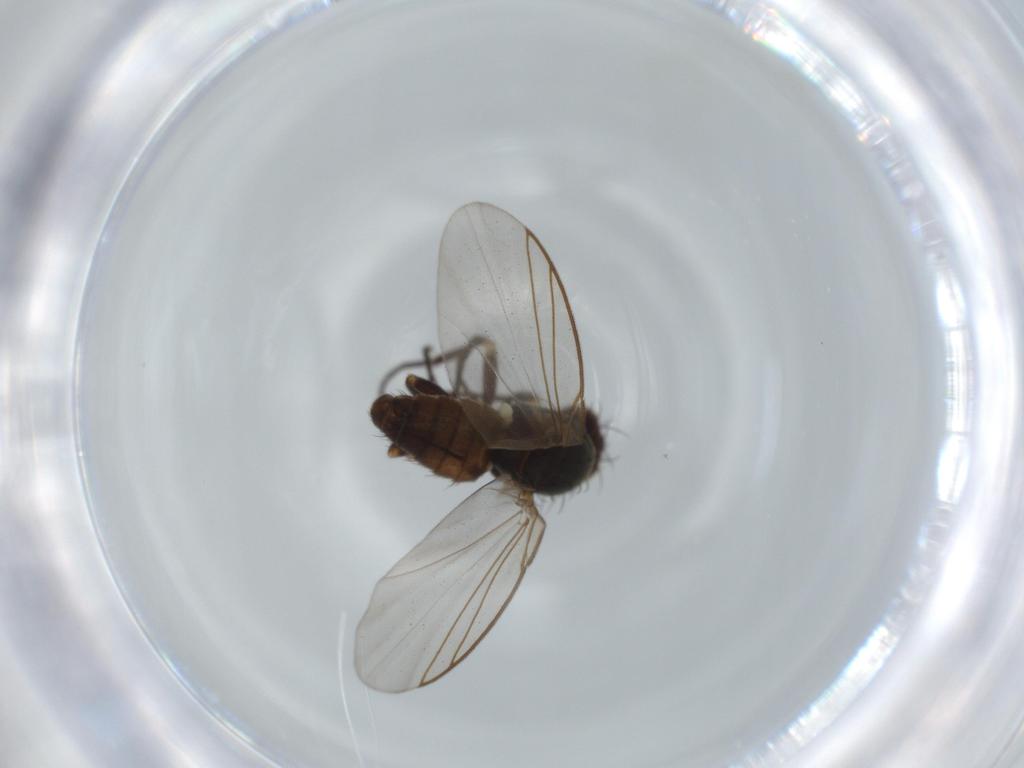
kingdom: Animalia
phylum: Arthropoda
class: Insecta
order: Diptera
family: Agromyzidae
